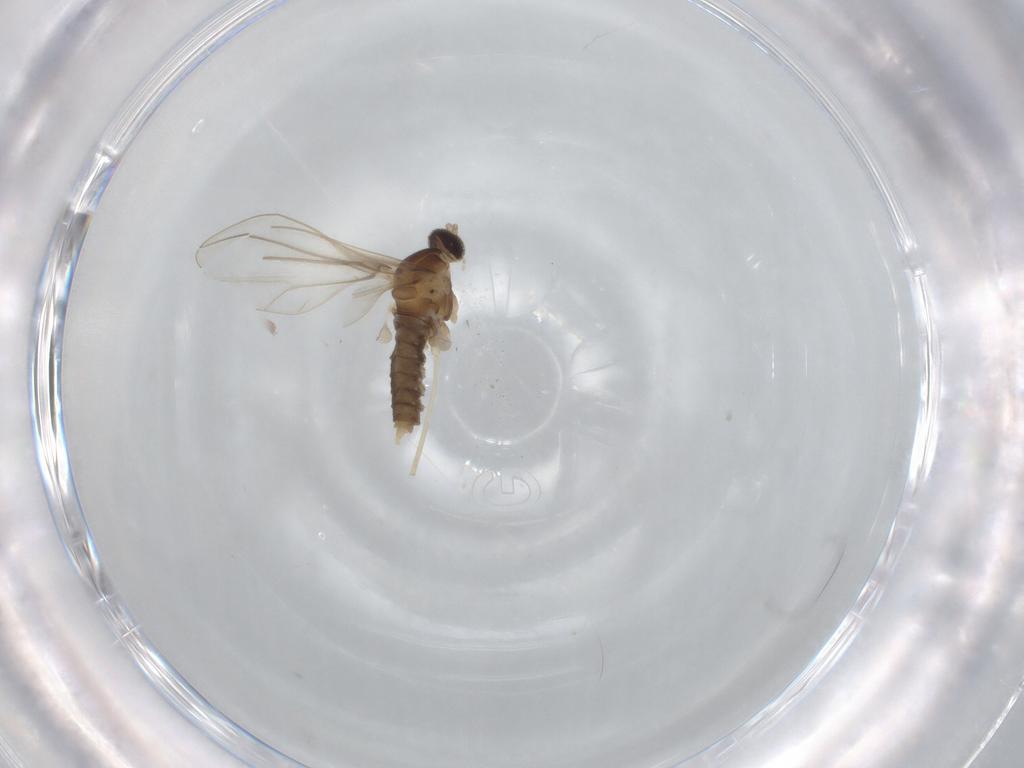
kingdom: Animalia
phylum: Arthropoda
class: Insecta
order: Diptera
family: Cecidomyiidae
